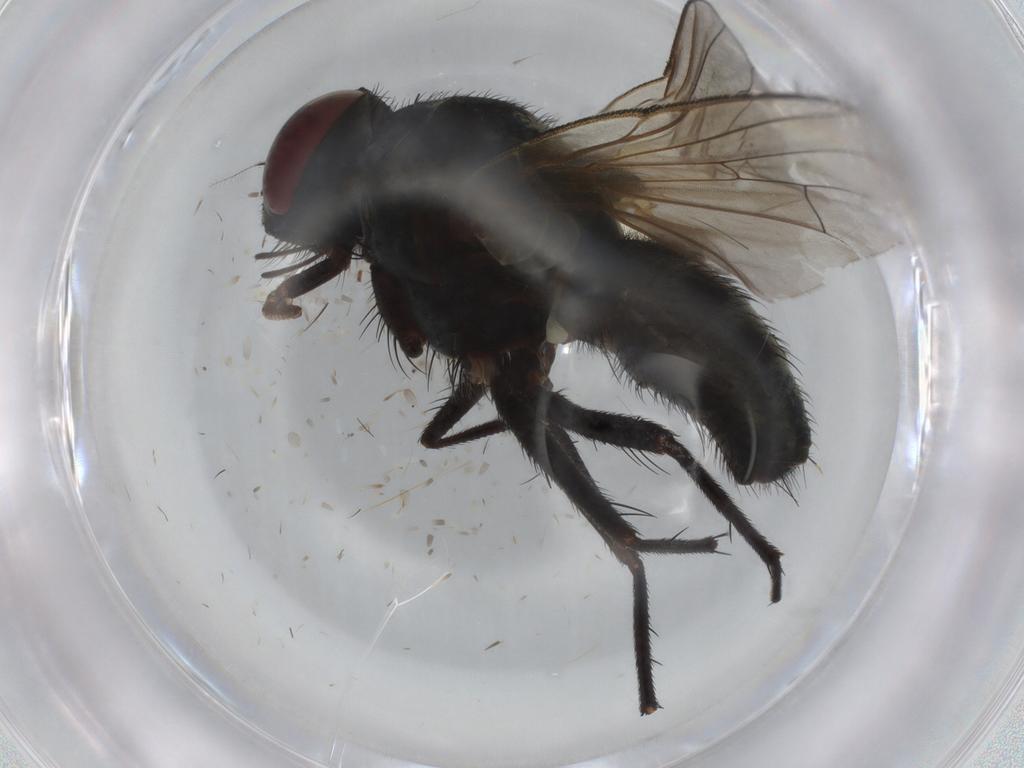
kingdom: Animalia
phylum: Arthropoda
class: Insecta
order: Diptera
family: Muscidae
